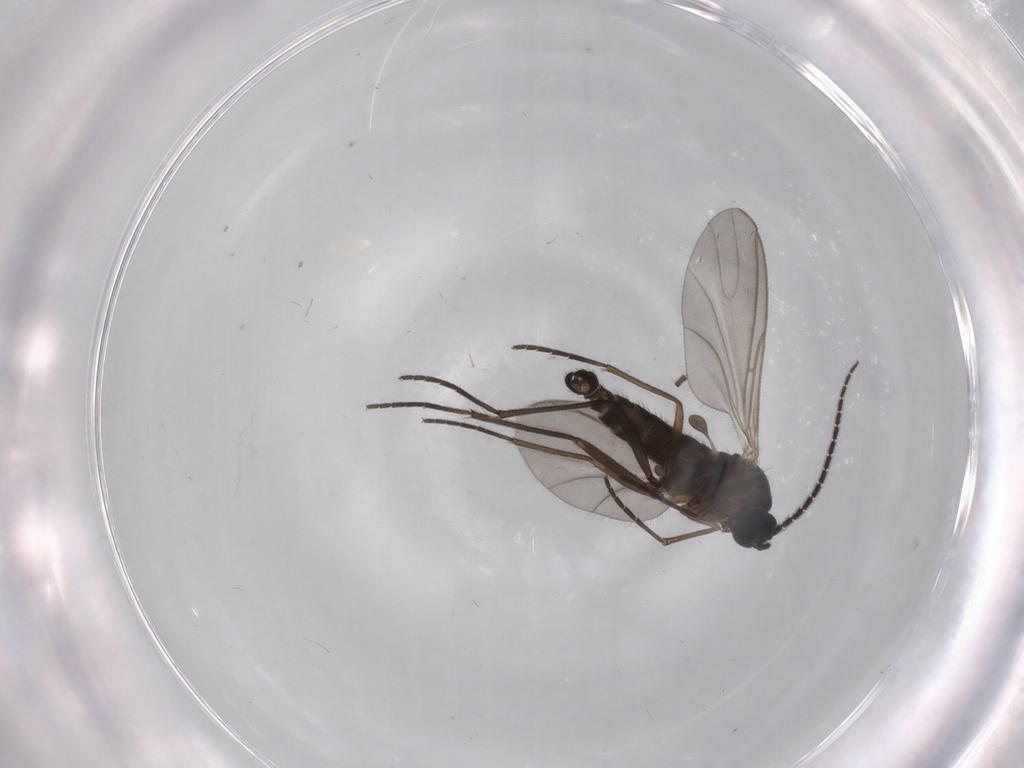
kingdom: Animalia
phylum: Arthropoda
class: Insecta
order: Diptera
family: Sciaridae
